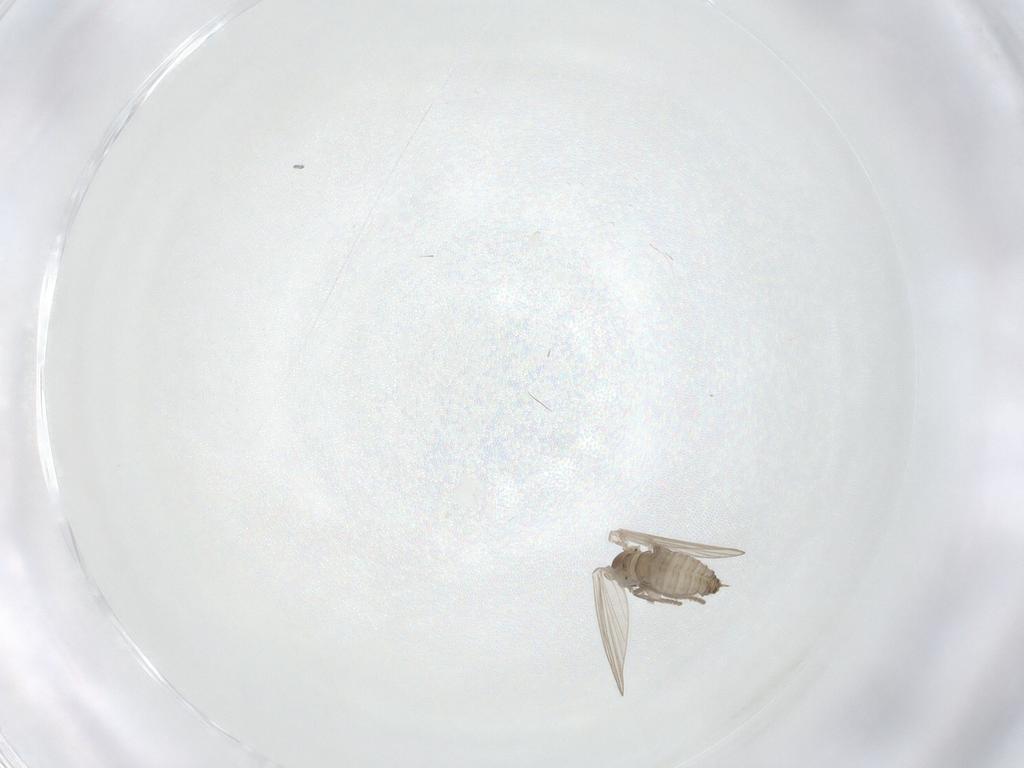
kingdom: Animalia
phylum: Arthropoda
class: Insecta
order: Diptera
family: Psychodidae
